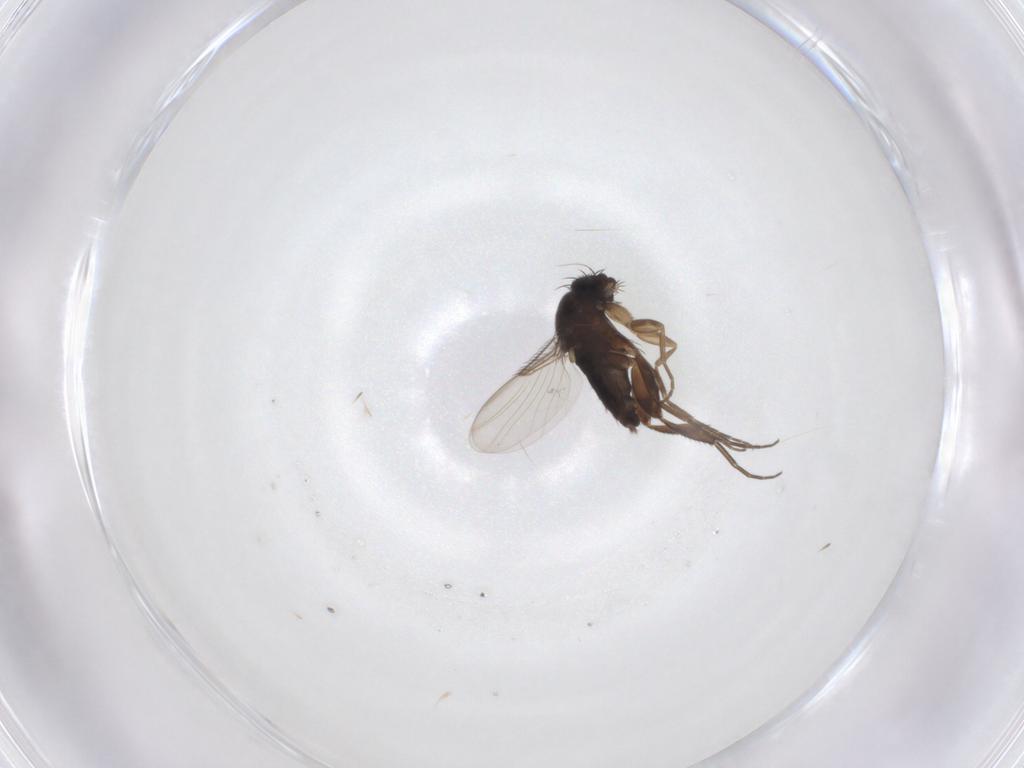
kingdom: Animalia
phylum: Arthropoda
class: Insecta
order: Diptera
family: Phoridae
